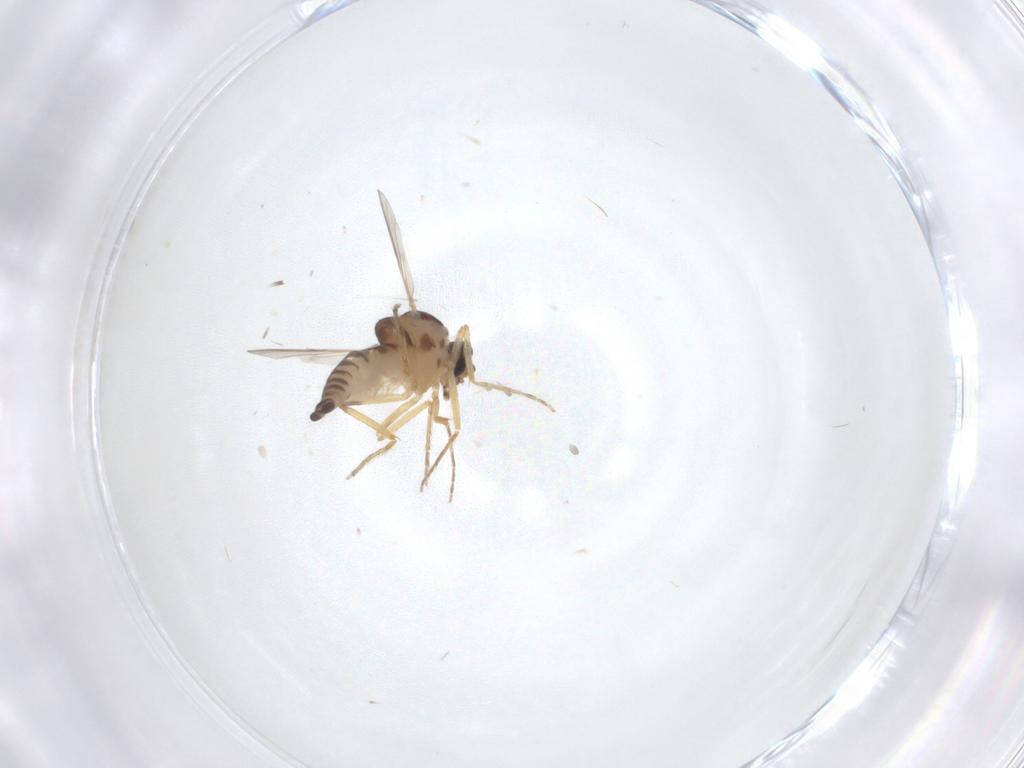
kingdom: Animalia
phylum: Arthropoda
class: Insecta
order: Diptera
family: Ceratopogonidae
